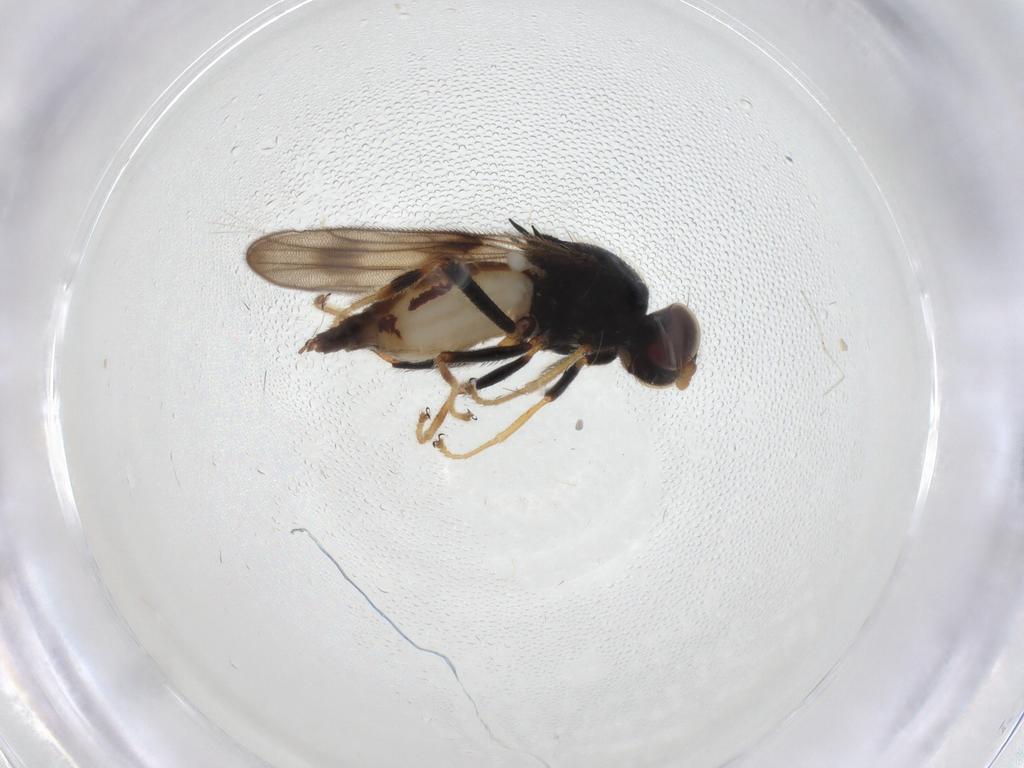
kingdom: Animalia
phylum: Arthropoda
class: Insecta
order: Diptera
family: Chloropidae
